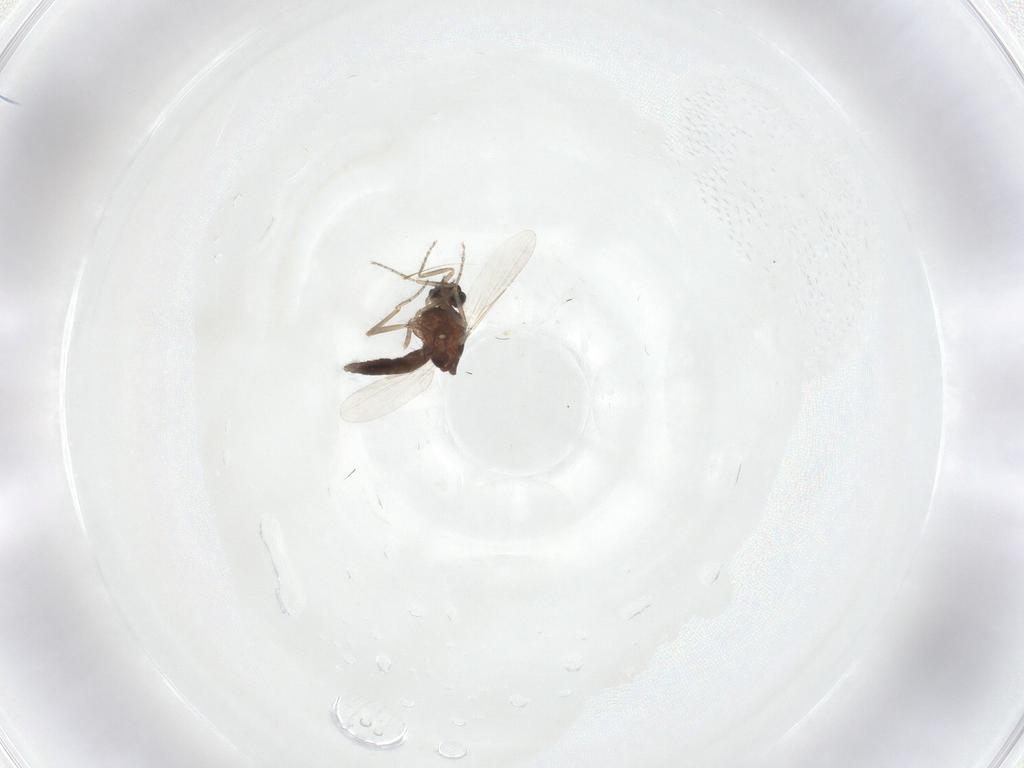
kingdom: Animalia
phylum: Arthropoda
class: Insecta
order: Diptera
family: Ceratopogonidae
